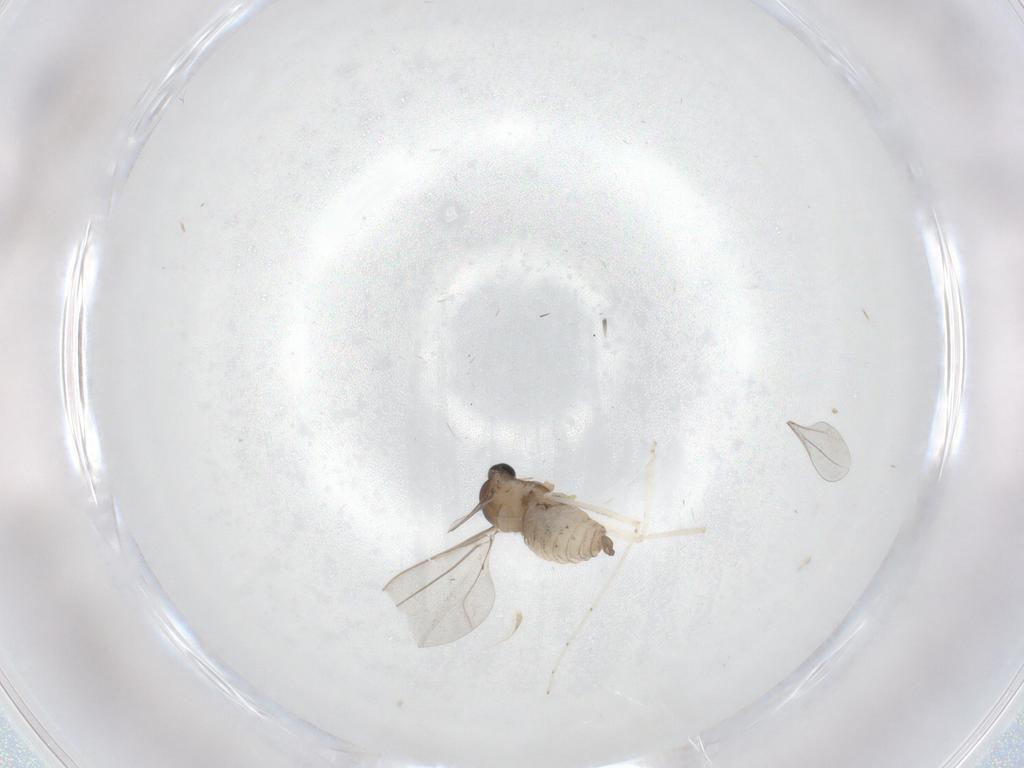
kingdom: Animalia
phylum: Arthropoda
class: Insecta
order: Diptera
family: Cecidomyiidae
